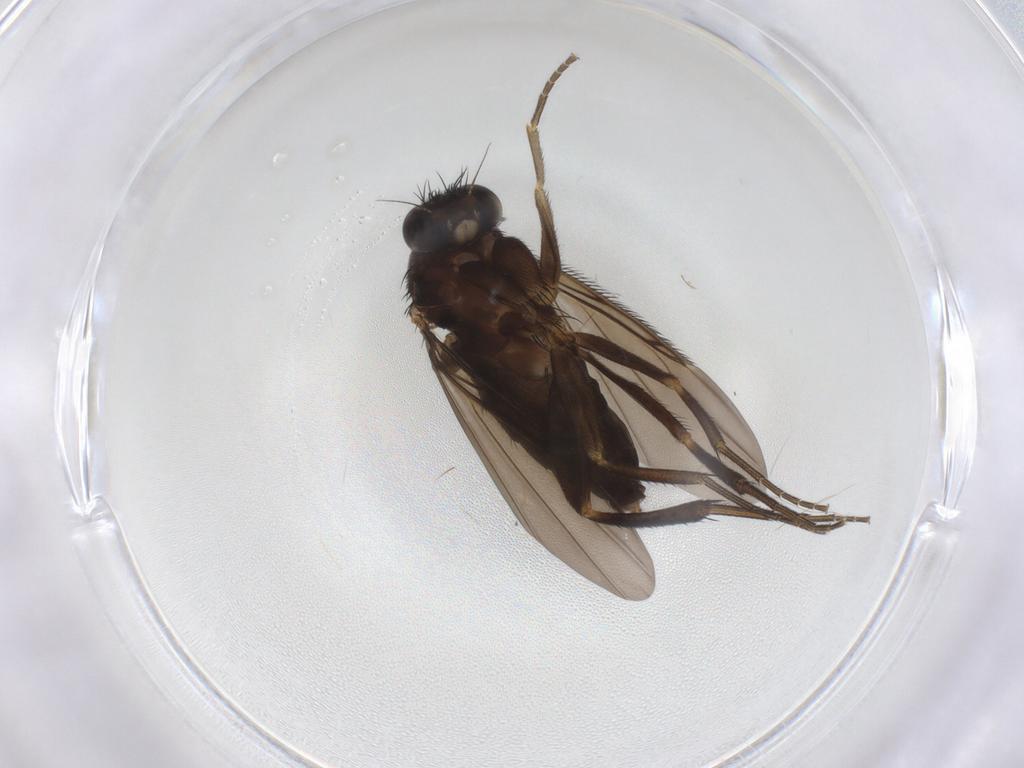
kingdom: Animalia
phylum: Arthropoda
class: Insecta
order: Diptera
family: Phoridae
